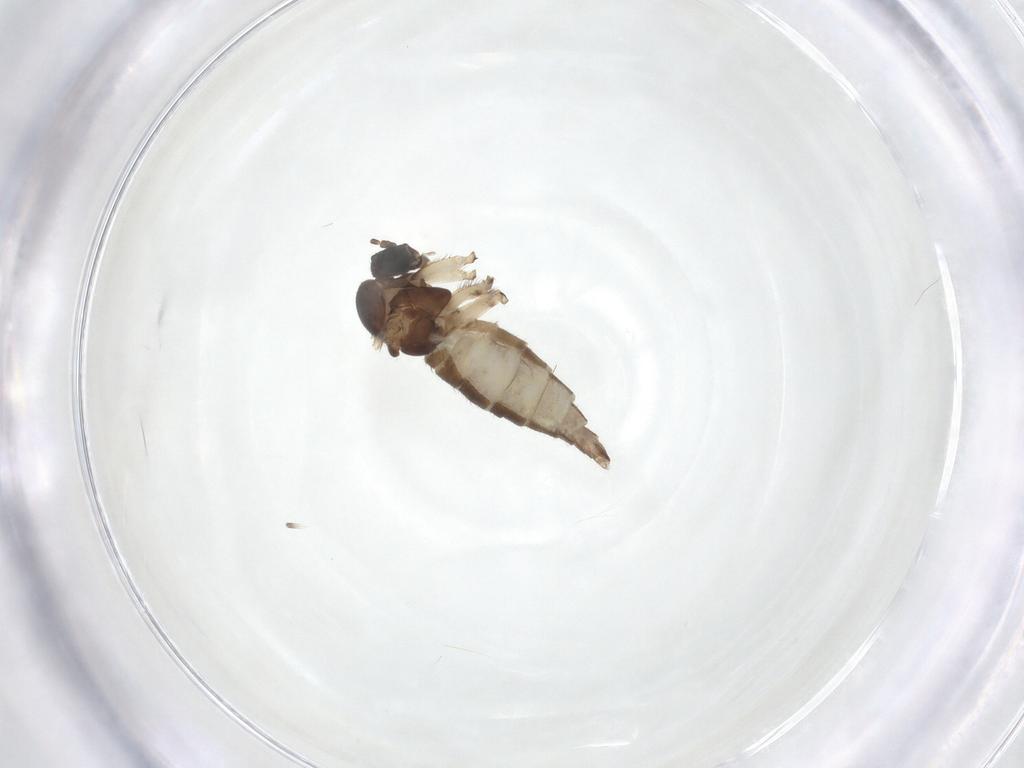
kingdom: Animalia
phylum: Arthropoda
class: Insecta
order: Diptera
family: Sciaridae
